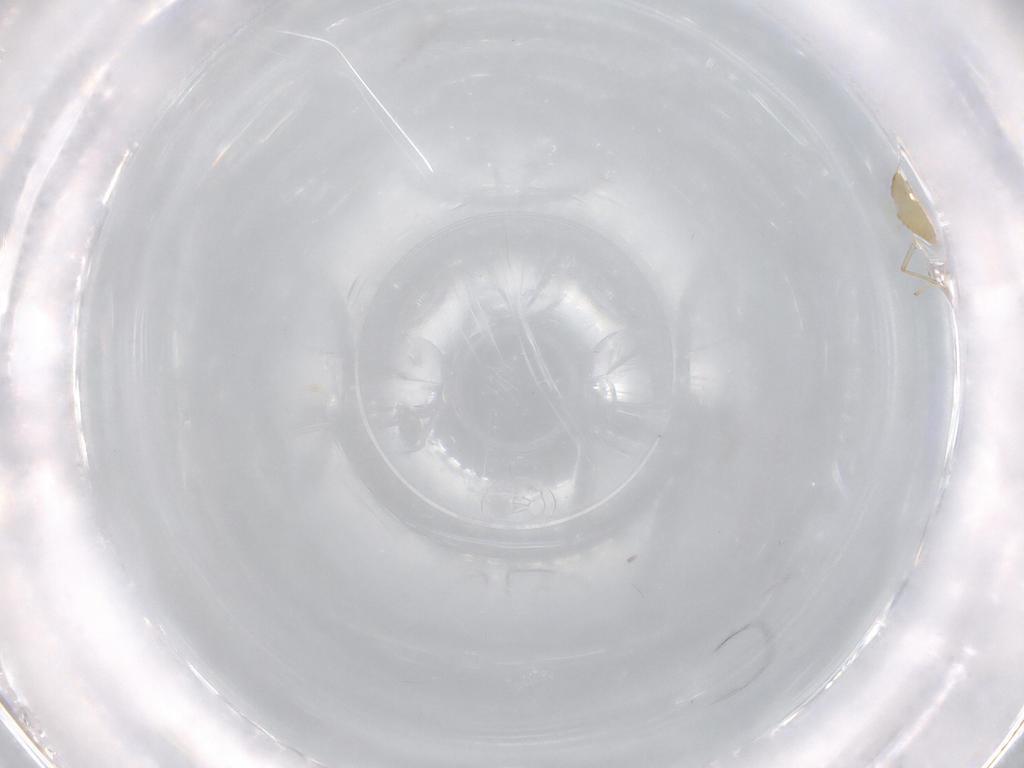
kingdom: Animalia
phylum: Arthropoda
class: Insecta
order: Diptera
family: Cecidomyiidae
